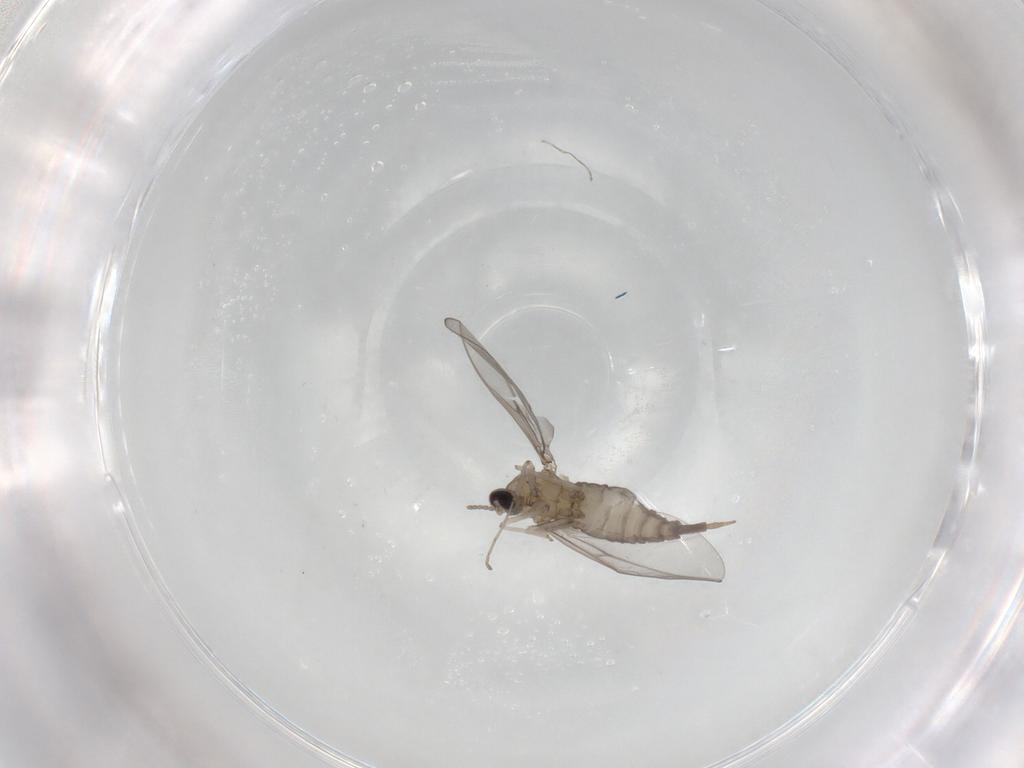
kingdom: Animalia
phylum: Arthropoda
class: Insecta
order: Diptera
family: Cecidomyiidae
